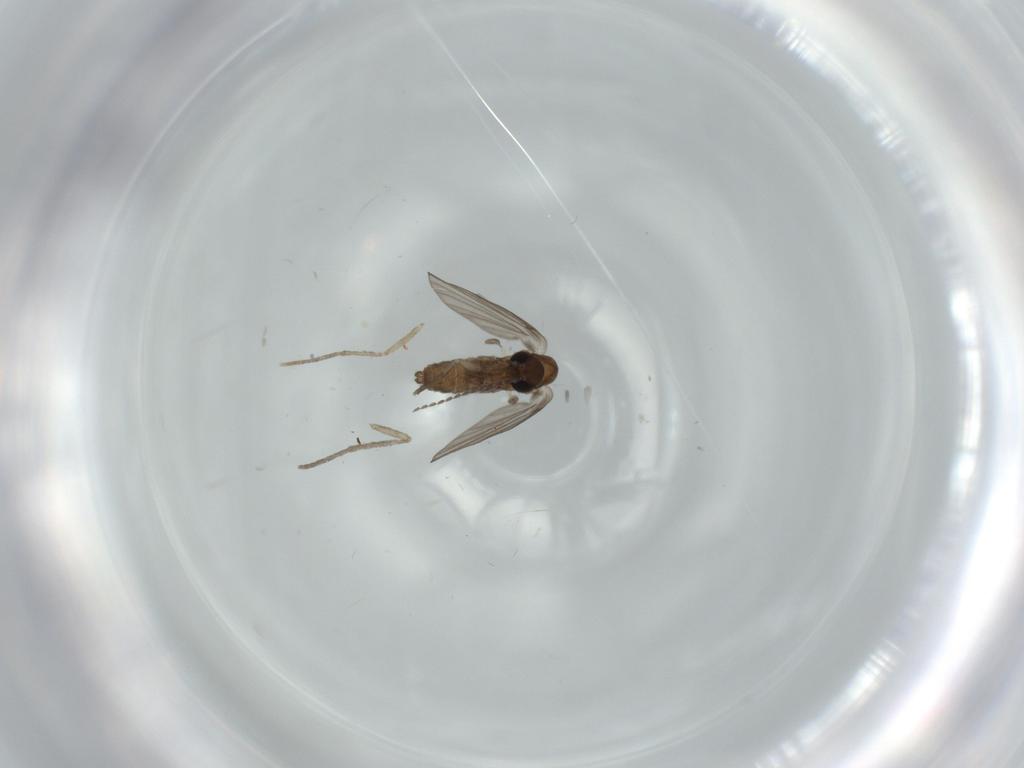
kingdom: Animalia
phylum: Arthropoda
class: Insecta
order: Diptera
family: Psychodidae
